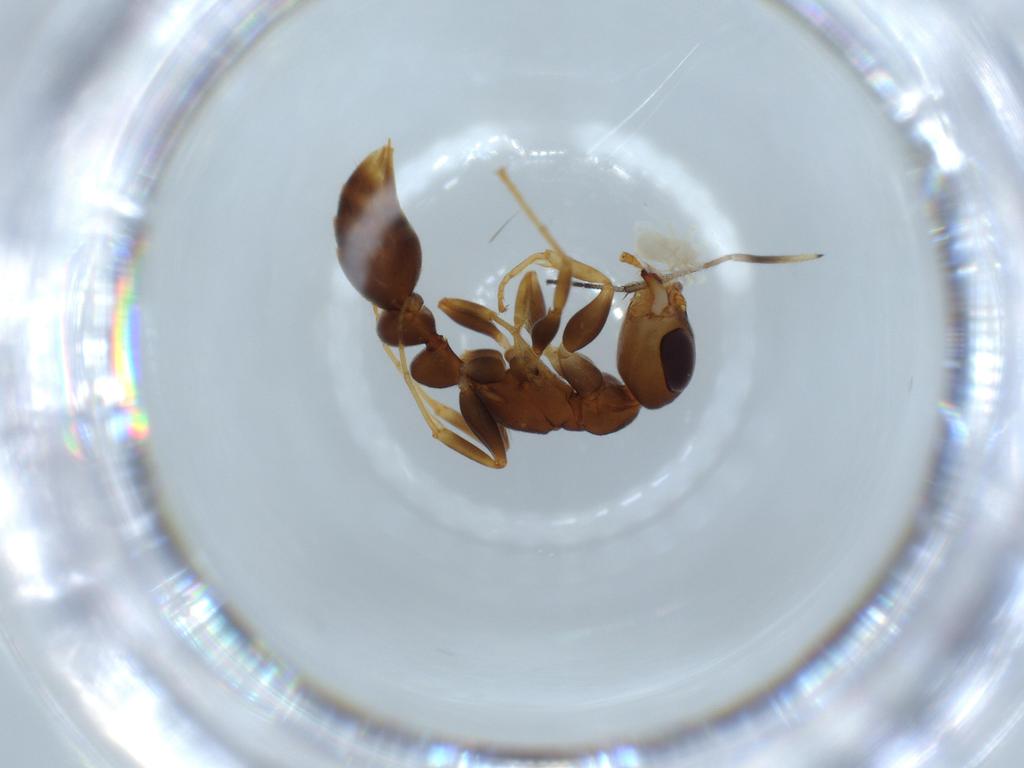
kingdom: Animalia
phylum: Arthropoda
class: Insecta
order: Hymenoptera
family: Formicidae
